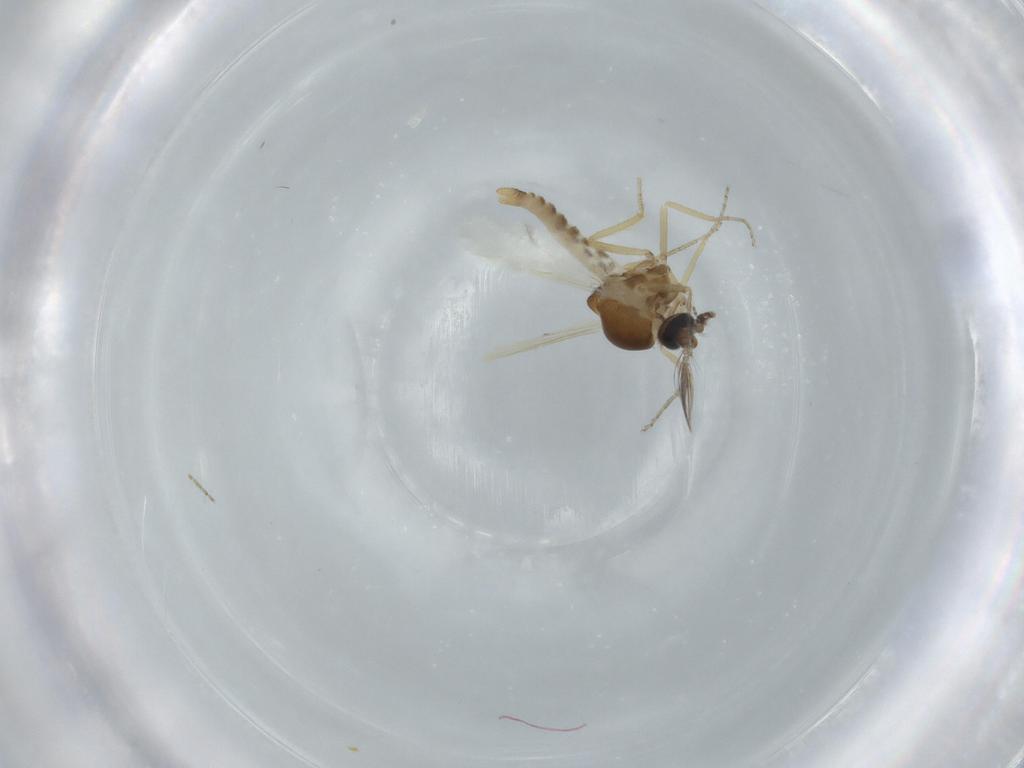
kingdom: Animalia
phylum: Arthropoda
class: Insecta
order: Diptera
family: Ceratopogonidae
